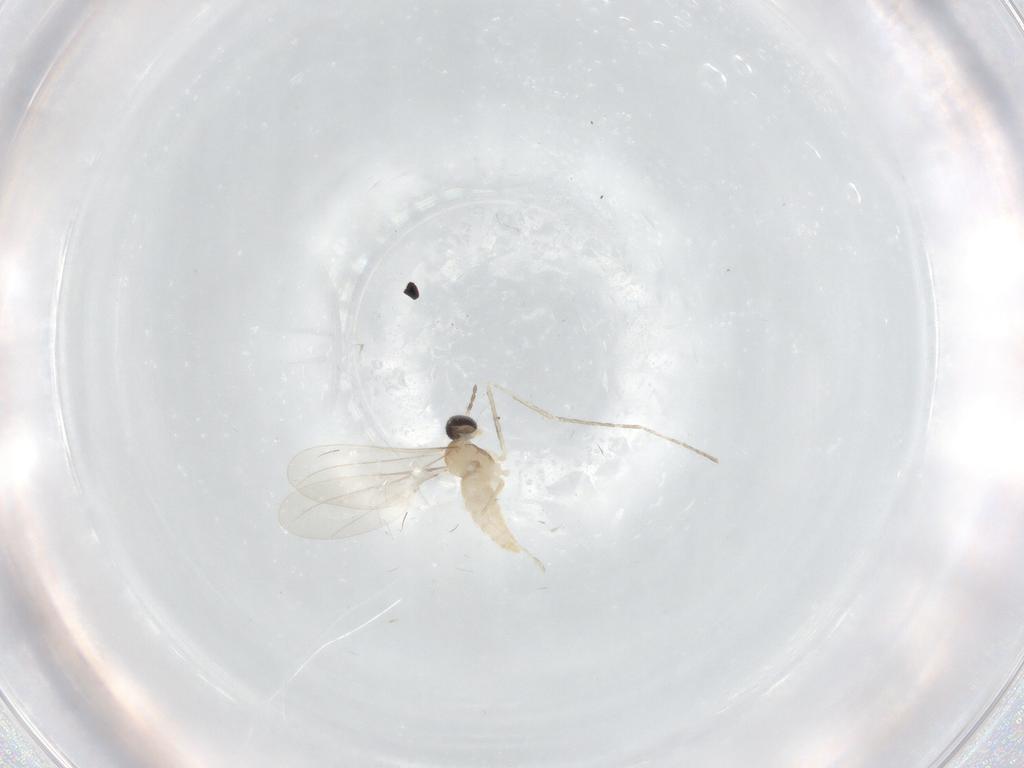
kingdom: Animalia
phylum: Arthropoda
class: Insecta
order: Diptera
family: Cecidomyiidae
